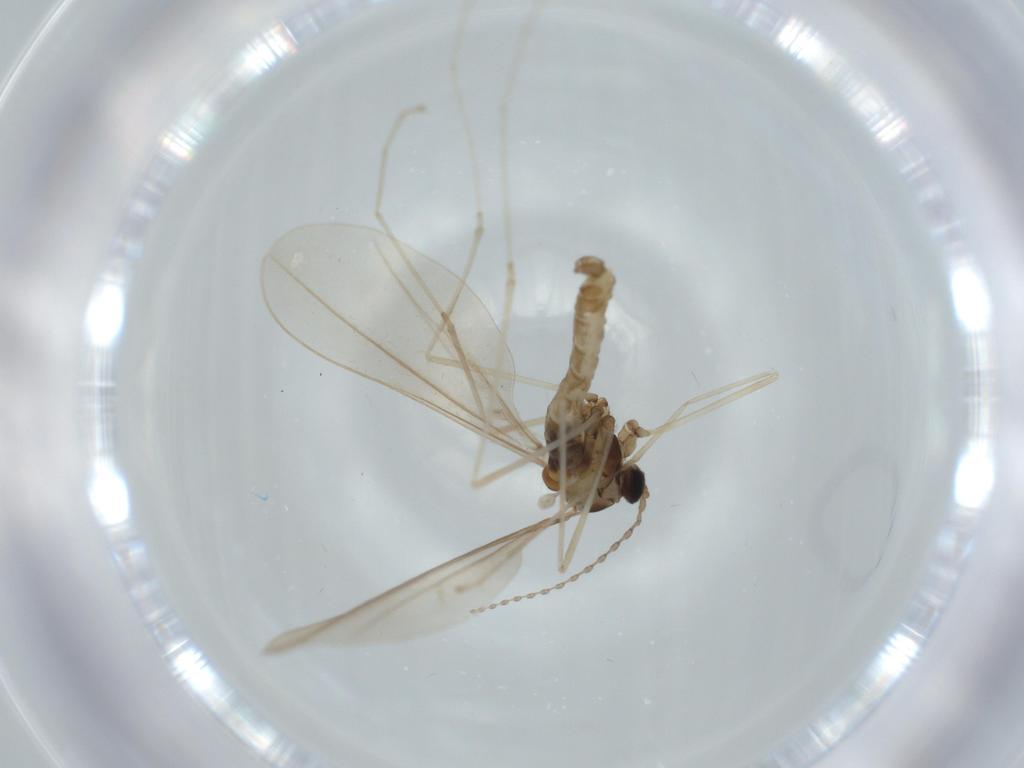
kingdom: Animalia
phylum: Arthropoda
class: Insecta
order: Diptera
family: Cecidomyiidae
